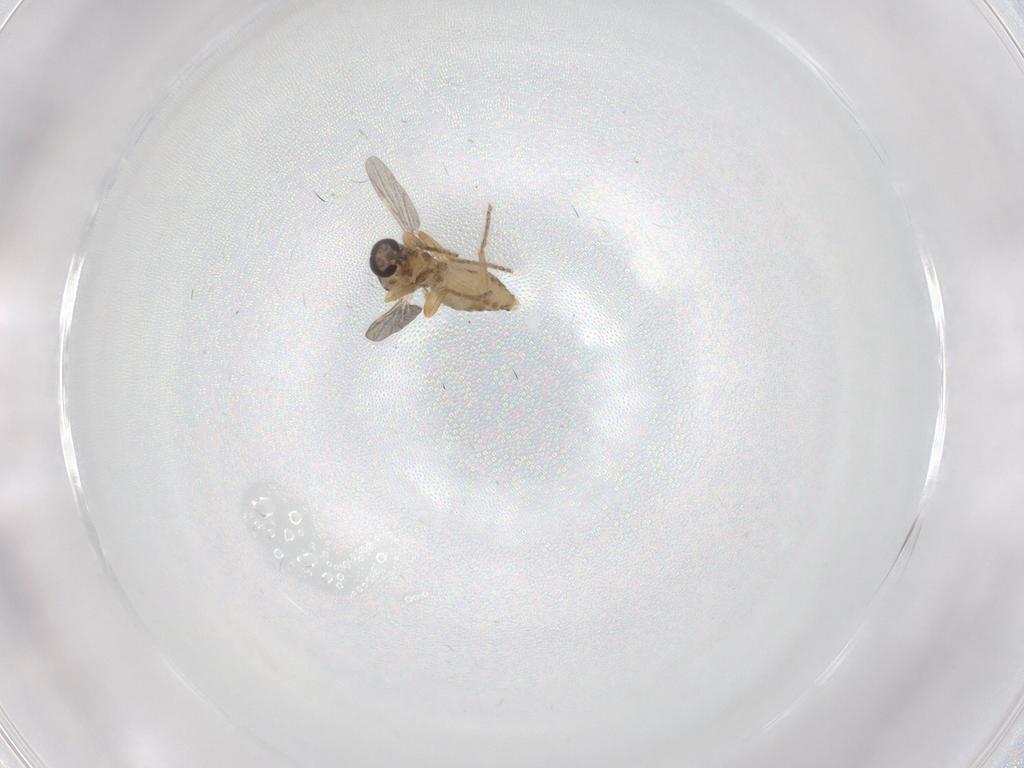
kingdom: Animalia
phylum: Arthropoda
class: Insecta
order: Diptera
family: Ceratopogonidae
